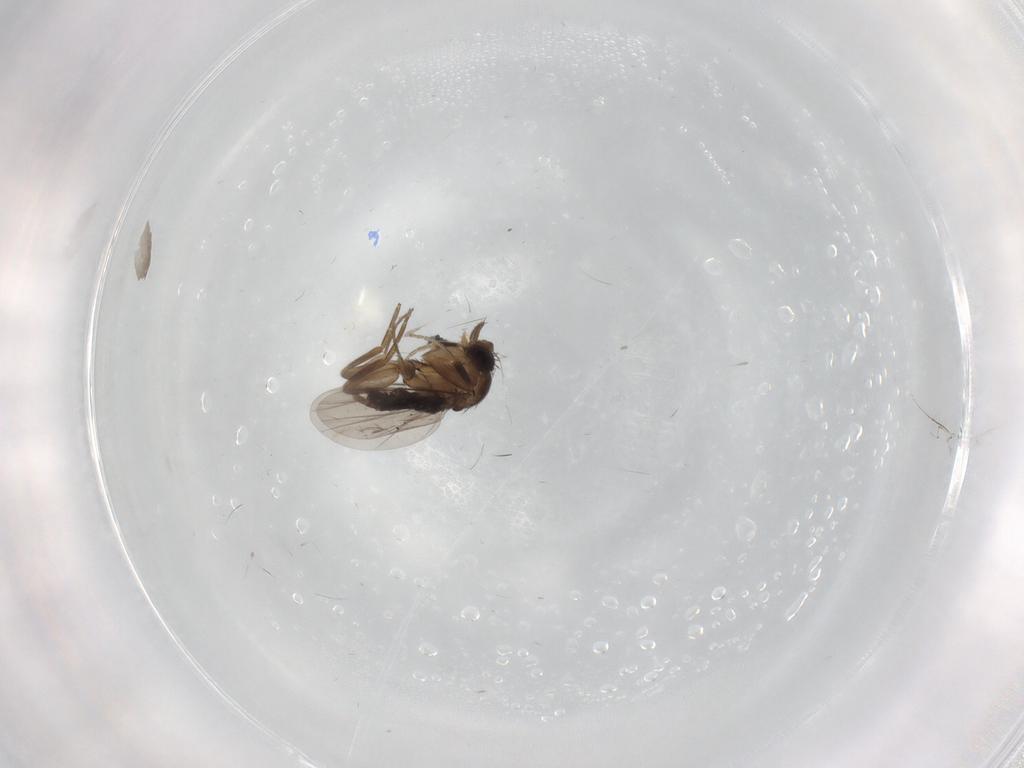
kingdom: Animalia
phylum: Arthropoda
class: Insecta
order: Diptera
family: Phoridae
